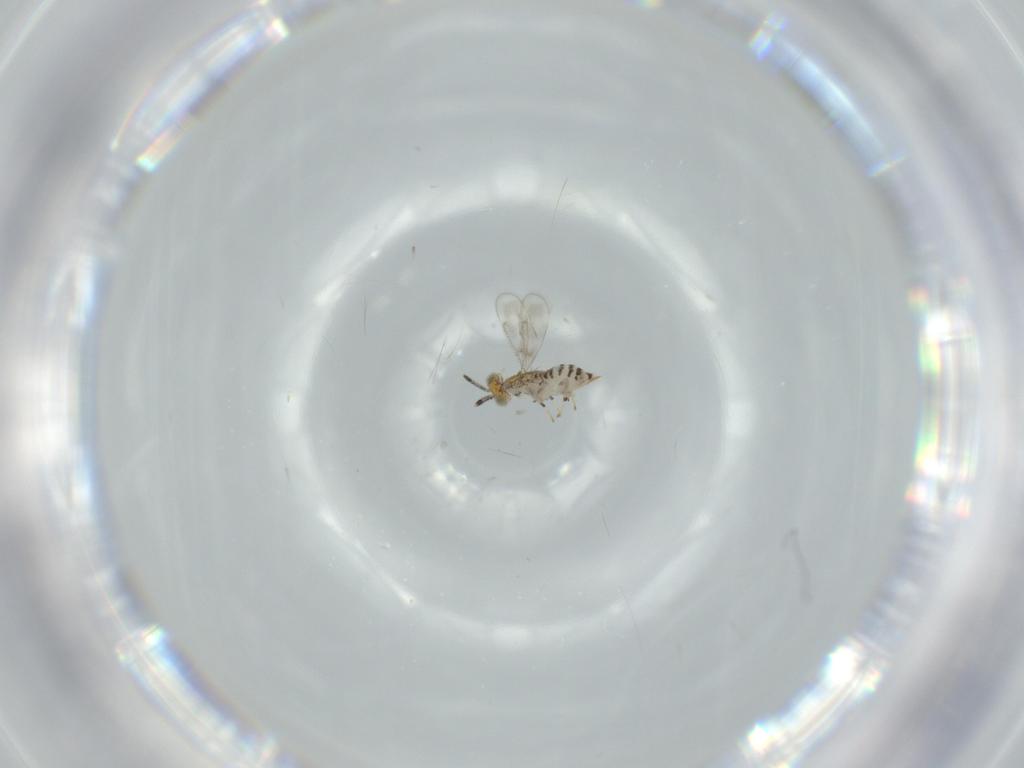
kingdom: Animalia
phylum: Arthropoda
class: Insecta
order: Hymenoptera
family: Aphelinidae
